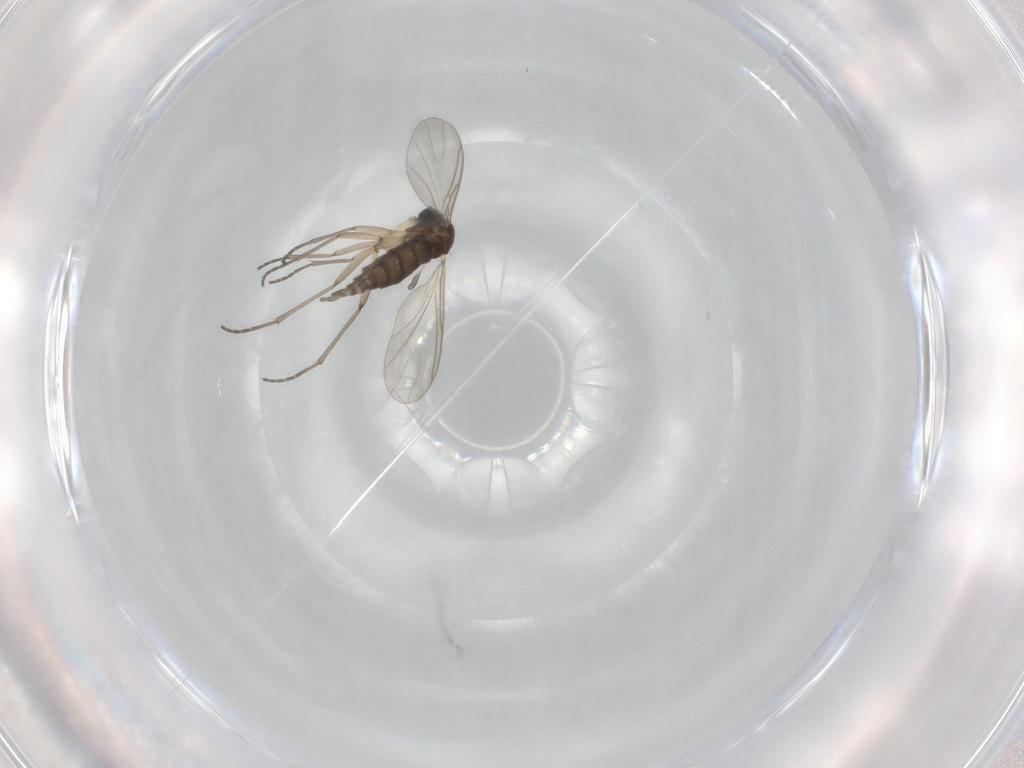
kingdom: Animalia
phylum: Arthropoda
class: Insecta
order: Diptera
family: Sciaridae
